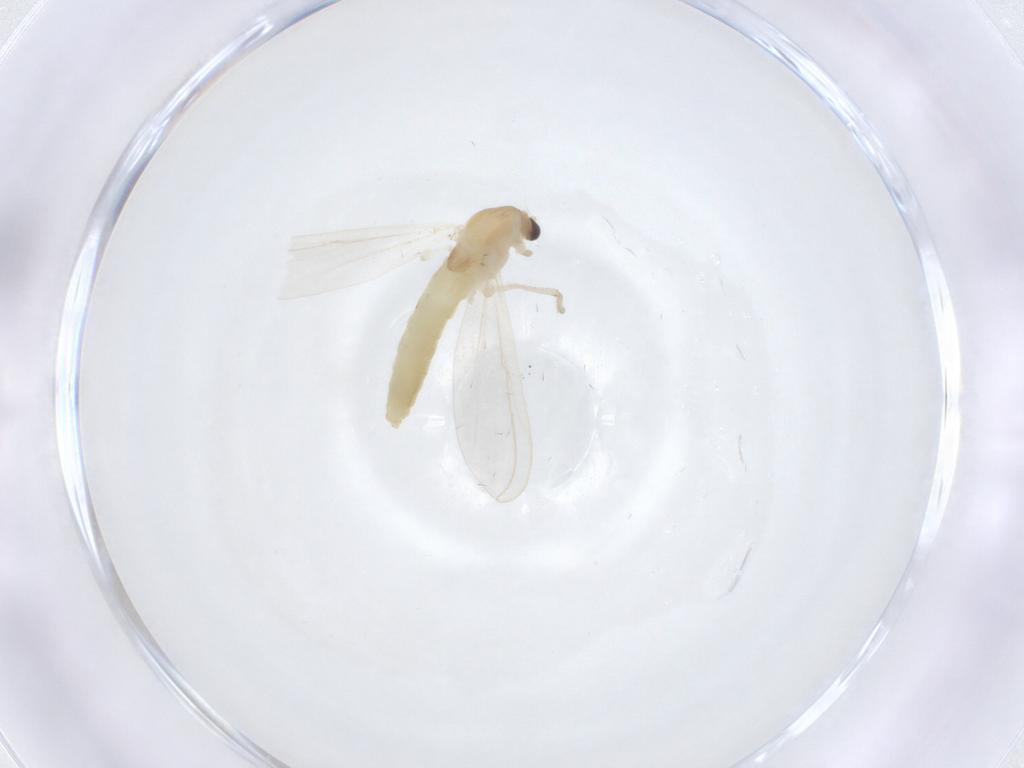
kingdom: Animalia
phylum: Arthropoda
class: Insecta
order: Diptera
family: Chironomidae
